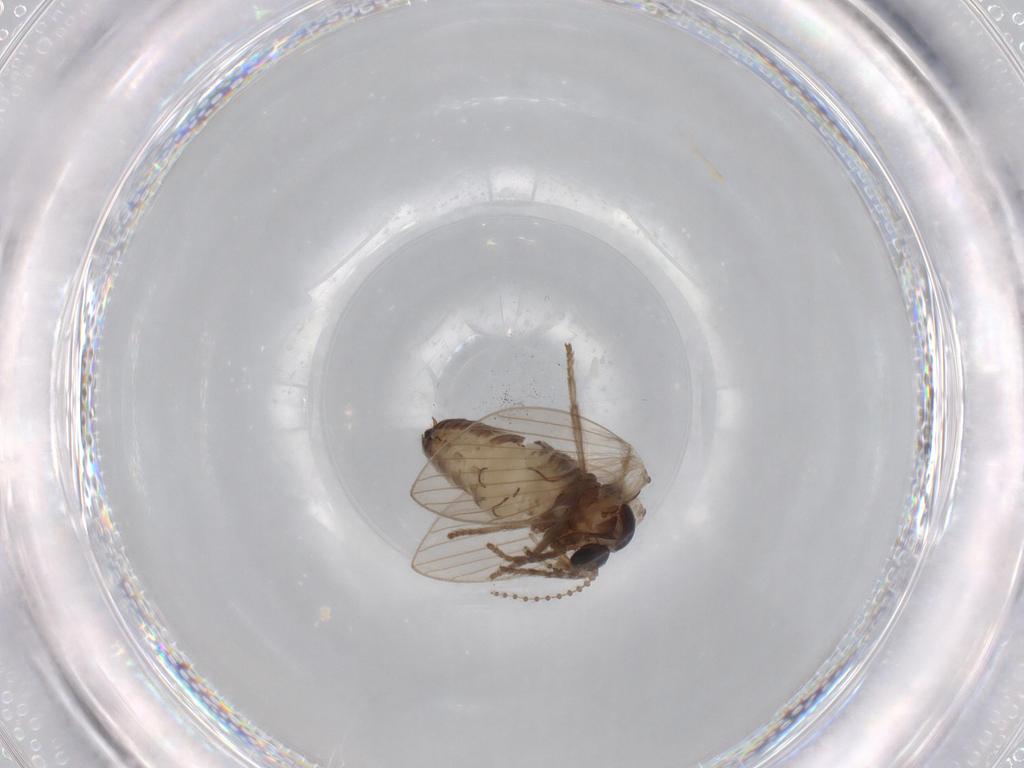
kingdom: Animalia
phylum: Arthropoda
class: Insecta
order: Diptera
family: Psychodidae
